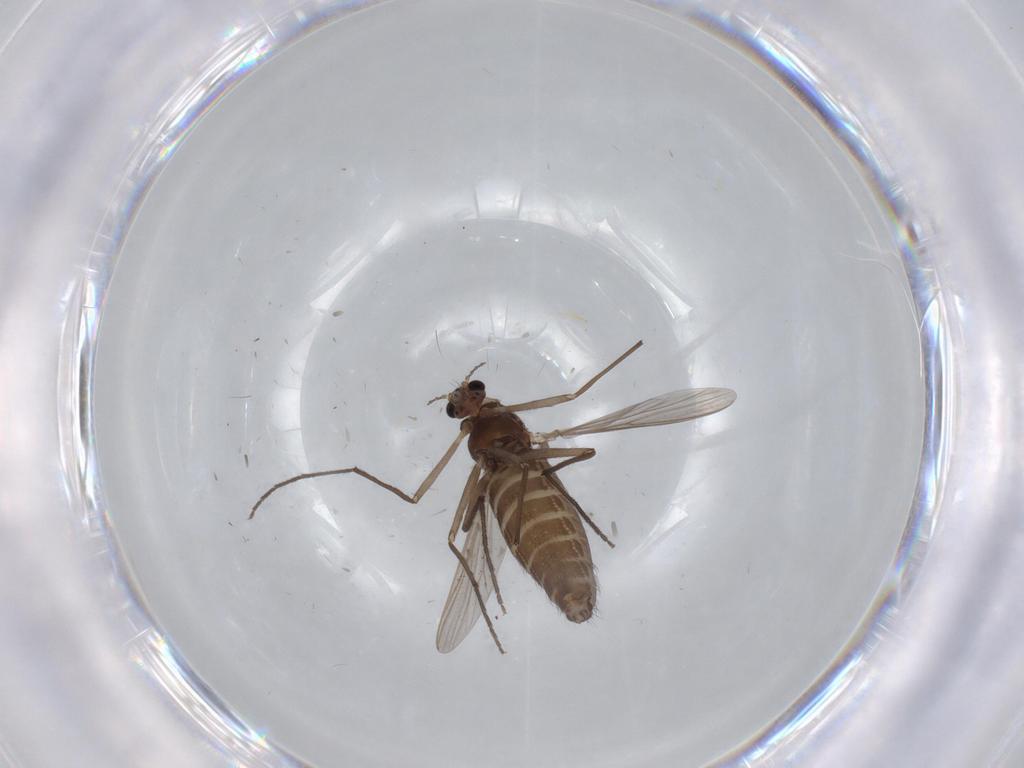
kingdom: Animalia
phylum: Arthropoda
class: Insecta
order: Diptera
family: Chironomidae
